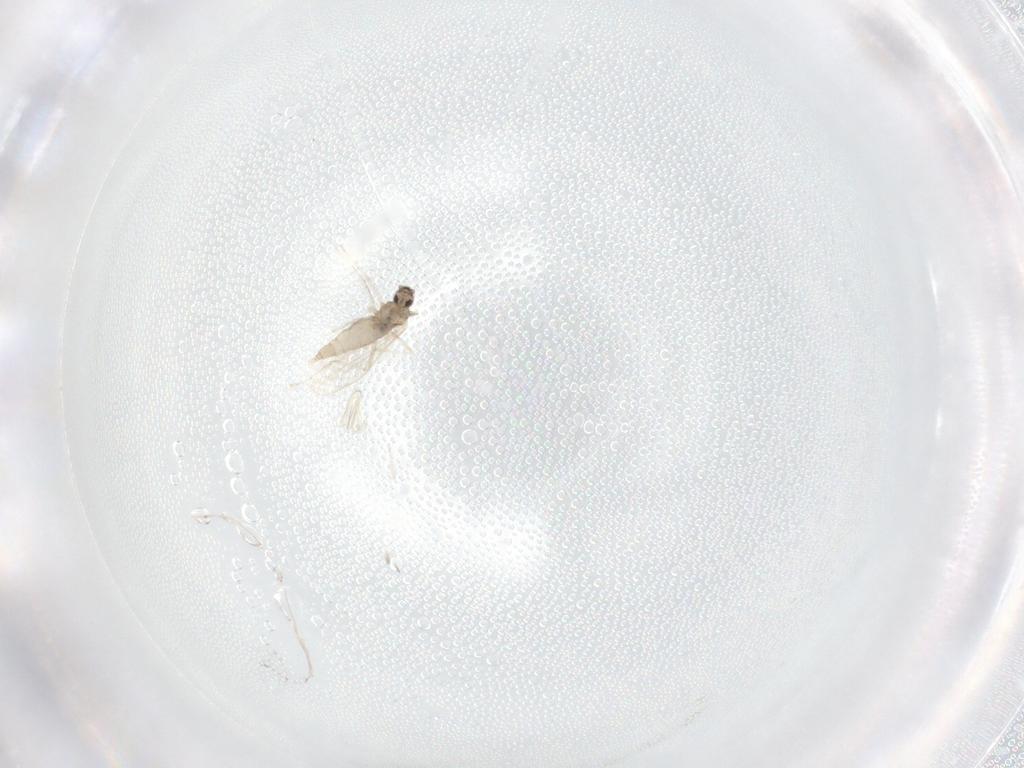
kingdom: Animalia
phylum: Arthropoda
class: Insecta
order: Diptera
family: Cecidomyiidae
